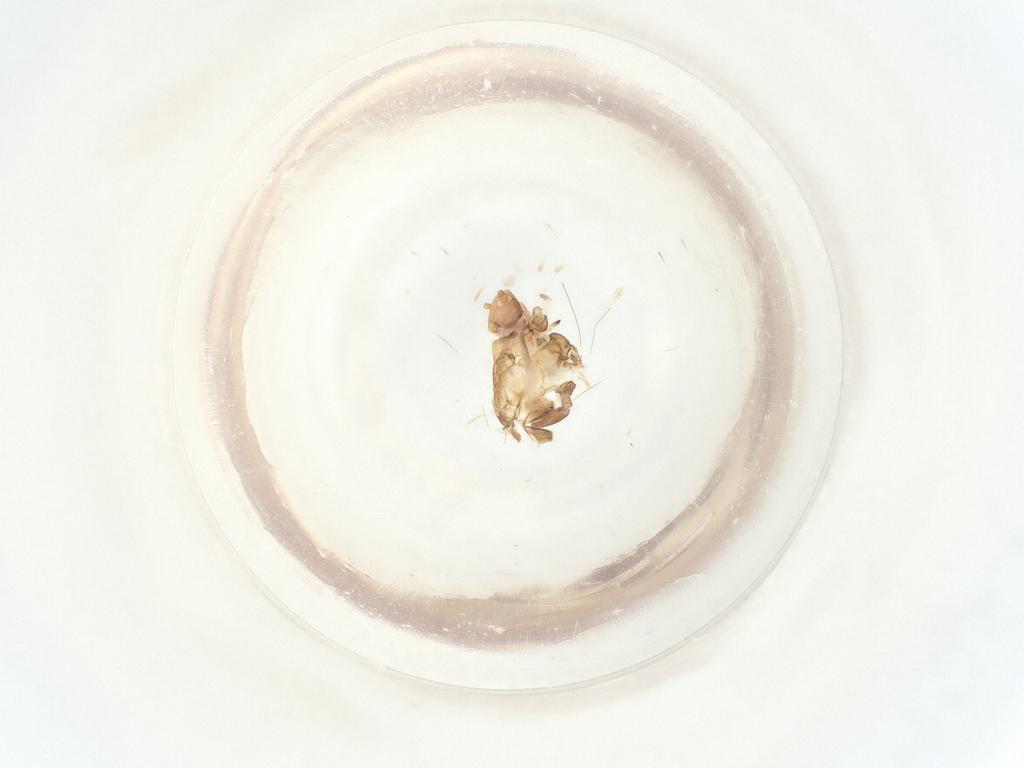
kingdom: Animalia
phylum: Arthropoda
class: Insecta
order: Hemiptera
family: Psyllidae
